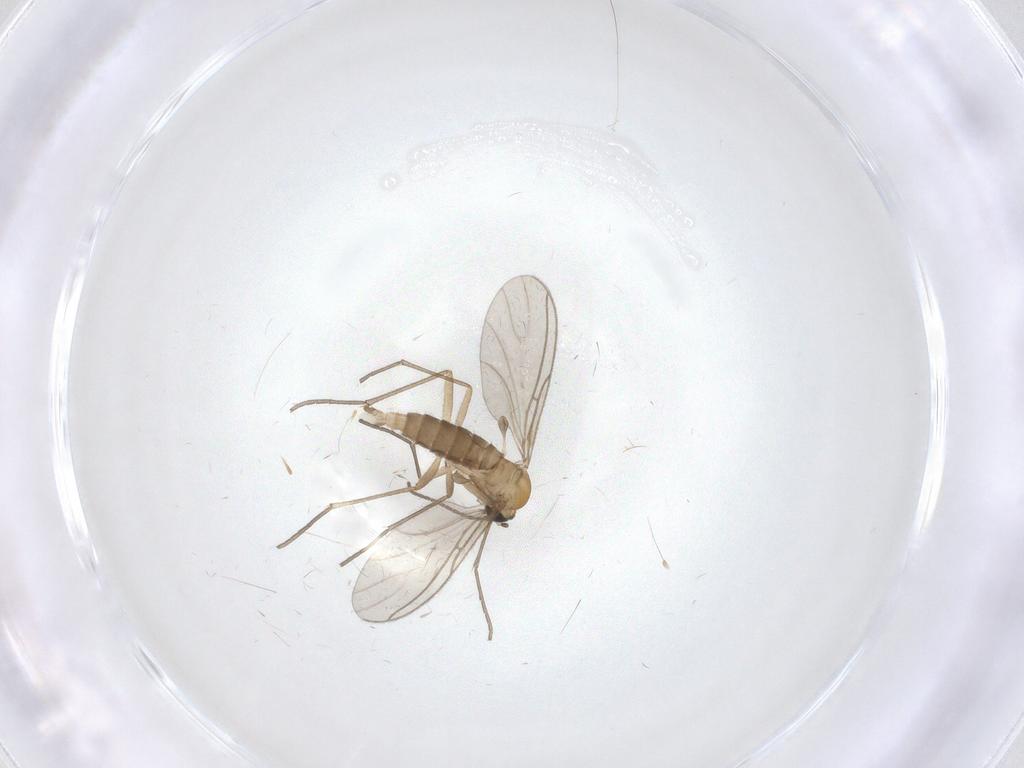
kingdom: Animalia
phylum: Arthropoda
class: Insecta
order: Diptera
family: Sciaridae
